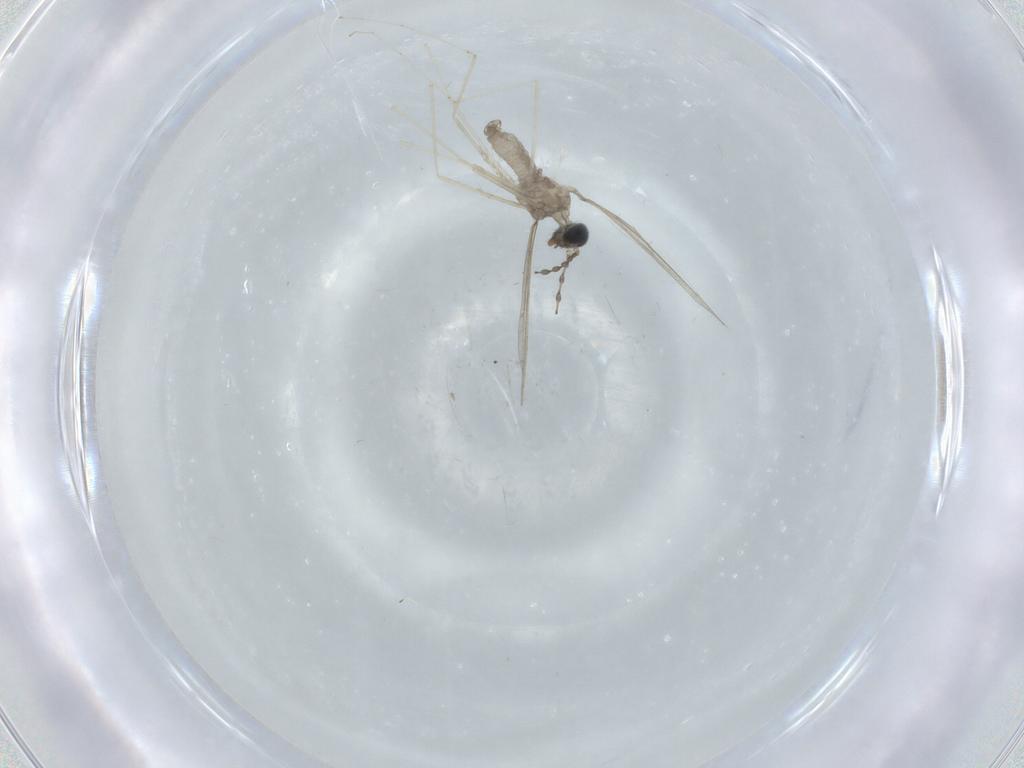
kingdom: Animalia
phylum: Arthropoda
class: Insecta
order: Diptera
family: Cecidomyiidae
